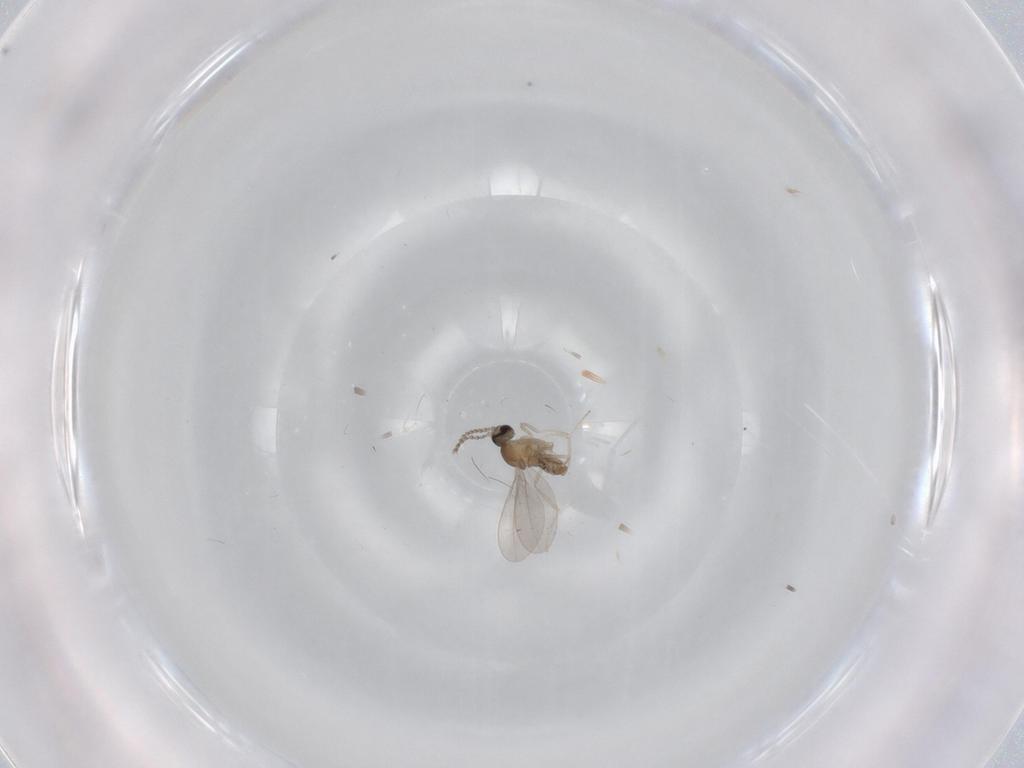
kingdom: Animalia
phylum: Arthropoda
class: Insecta
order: Diptera
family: Cecidomyiidae
